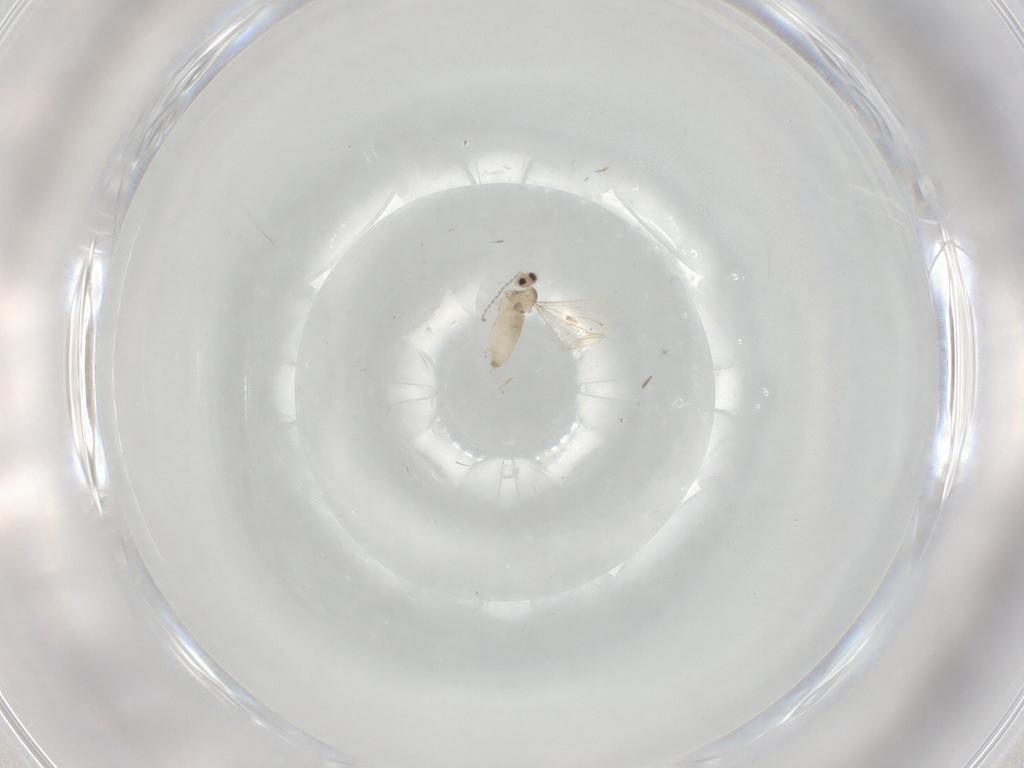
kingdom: Animalia
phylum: Arthropoda
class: Insecta
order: Diptera
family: Cecidomyiidae
